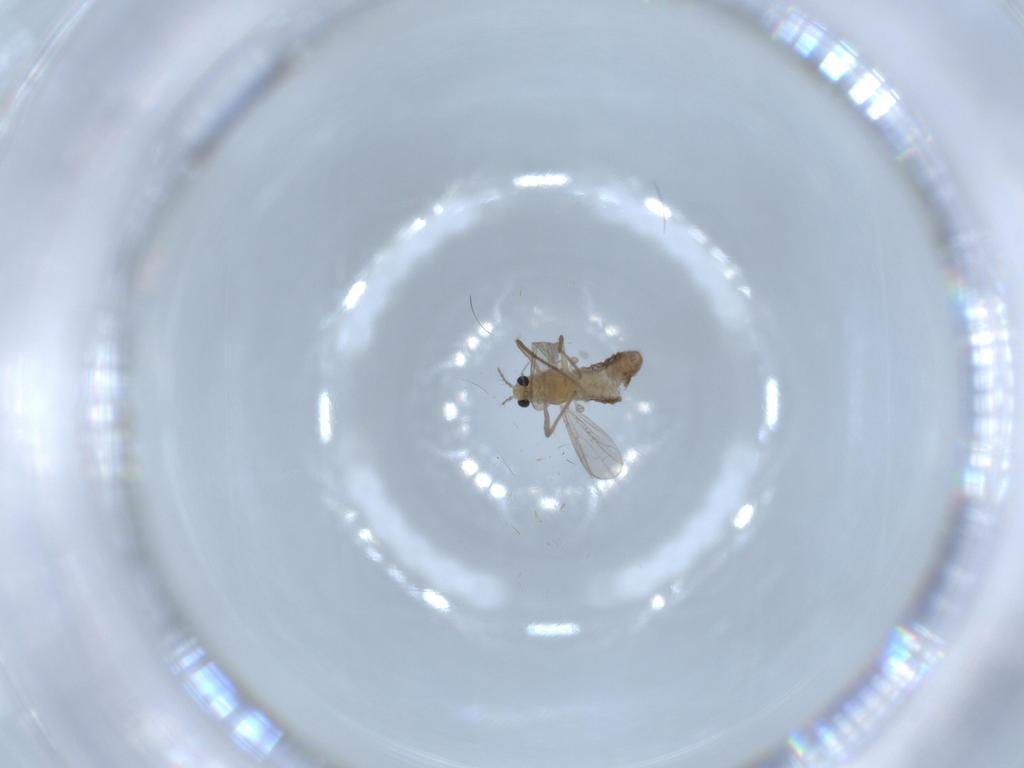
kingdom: Animalia
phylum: Arthropoda
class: Insecta
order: Diptera
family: Chironomidae
